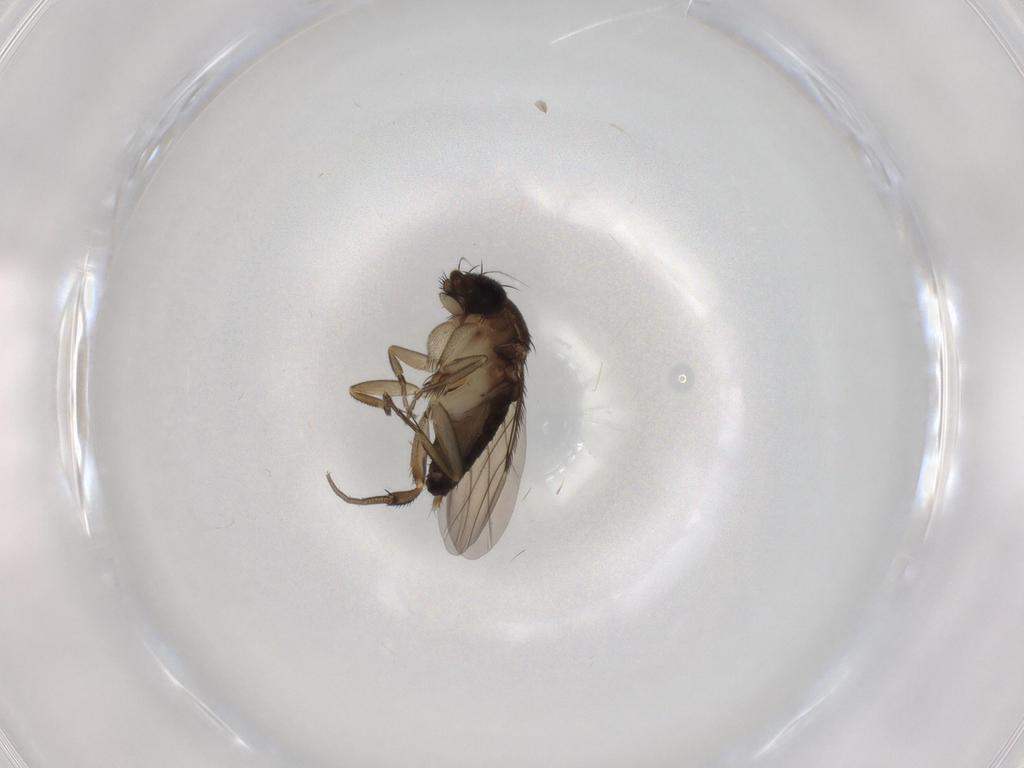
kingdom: Animalia
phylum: Arthropoda
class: Insecta
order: Diptera
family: Phoridae
